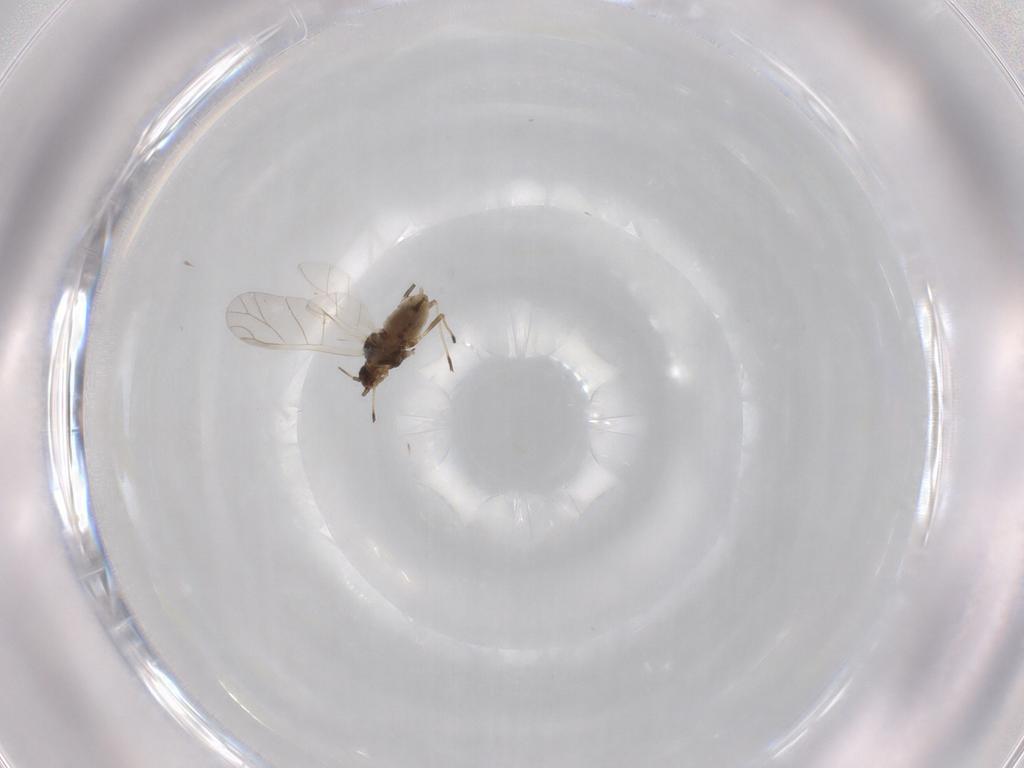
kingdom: Animalia
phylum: Arthropoda
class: Insecta
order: Hemiptera
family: Aphididae
